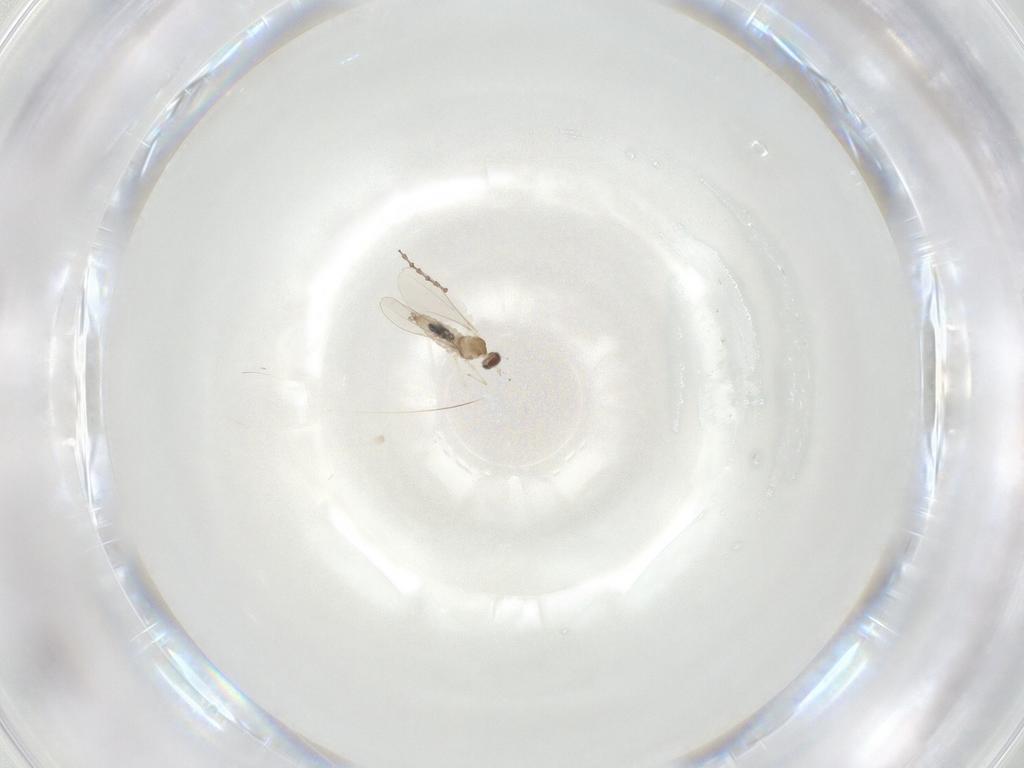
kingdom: Animalia
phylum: Arthropoda
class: Insecta
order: Diptera
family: Cecidomyiidae
